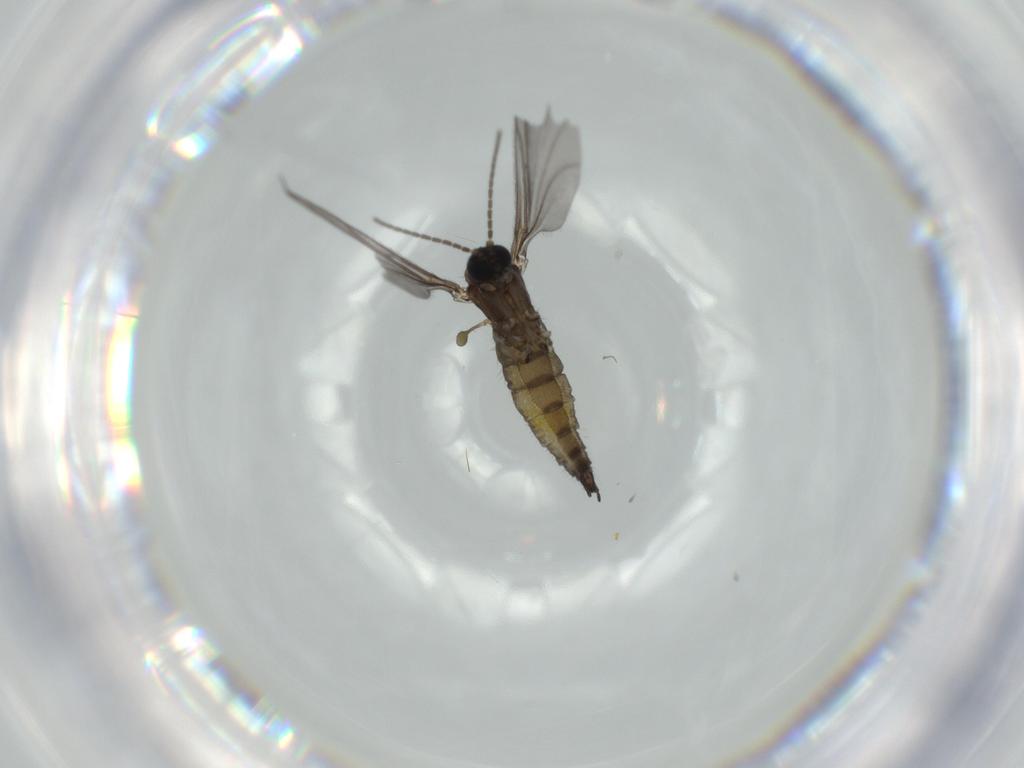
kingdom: Animalia
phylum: Arthropoda
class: Insecta
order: Diptera
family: Sciaridae
